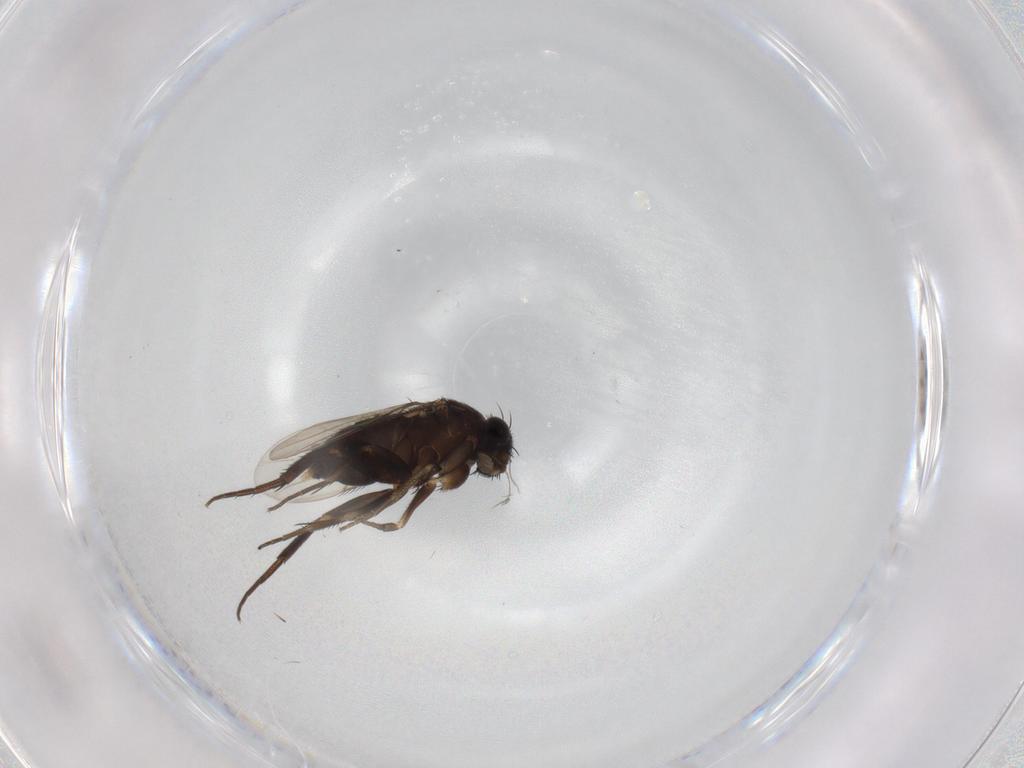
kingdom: Animalia
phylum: Arthropoda
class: Insecta
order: Diptera
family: Phoridae
